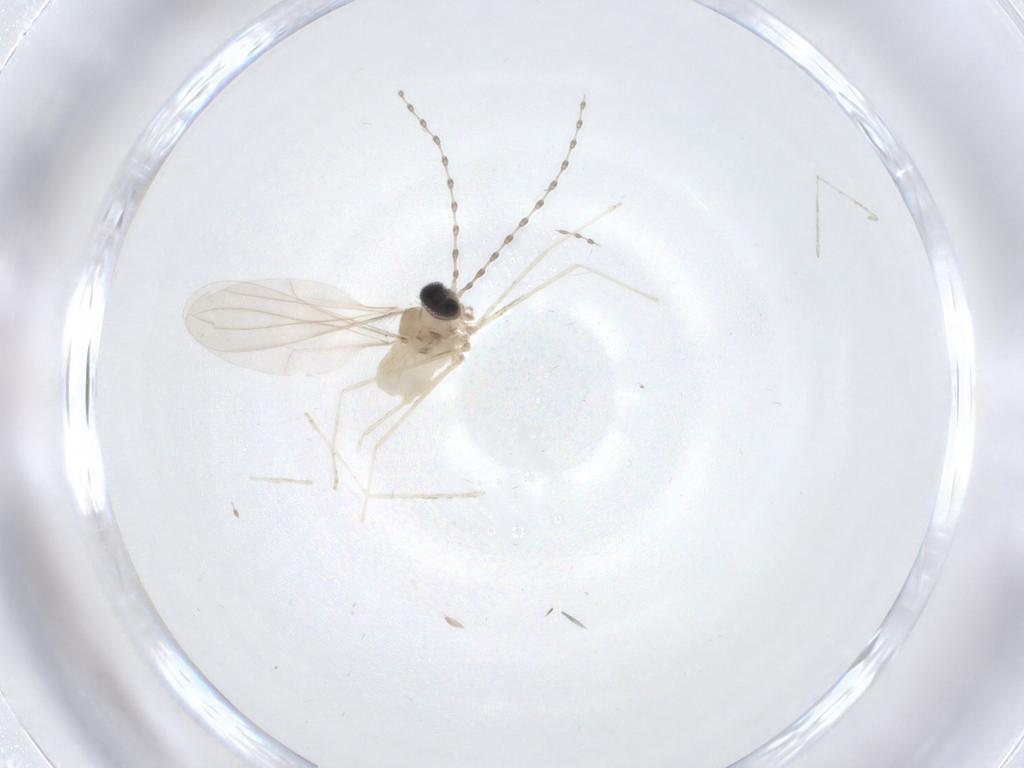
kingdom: Animalia
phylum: Arthropoda
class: Insecta
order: Diptera
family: Cecidomyiidae
